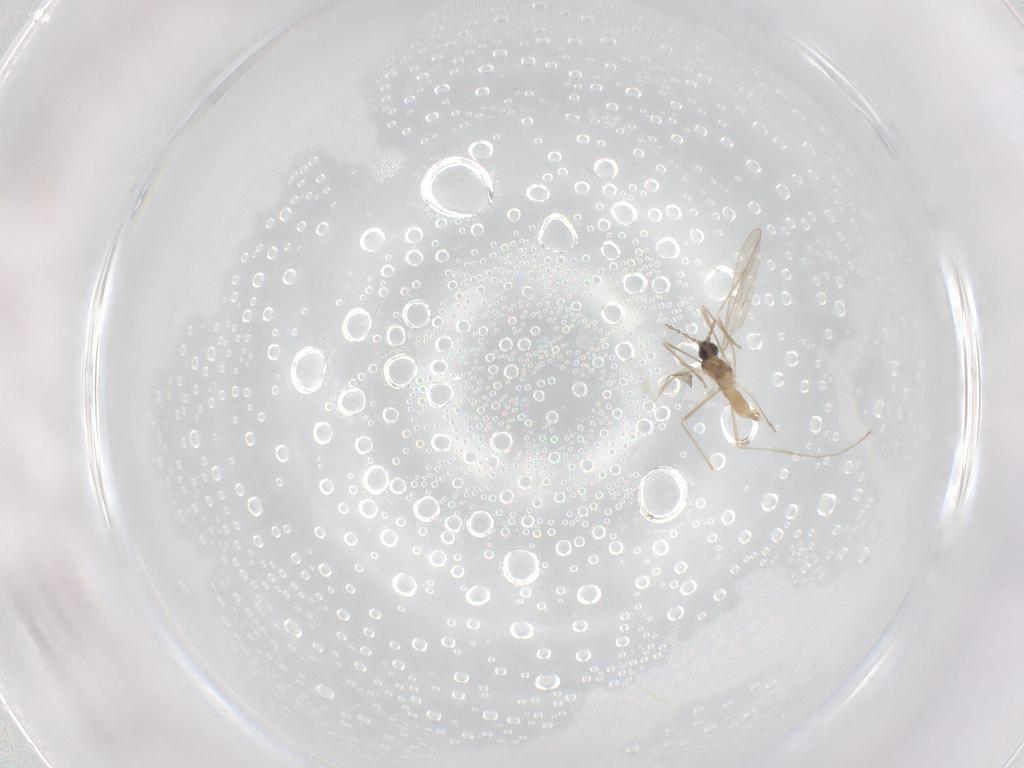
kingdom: Animalia
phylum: Arthropoda
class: Insecta
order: Diptera
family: Cecidomyiidae
